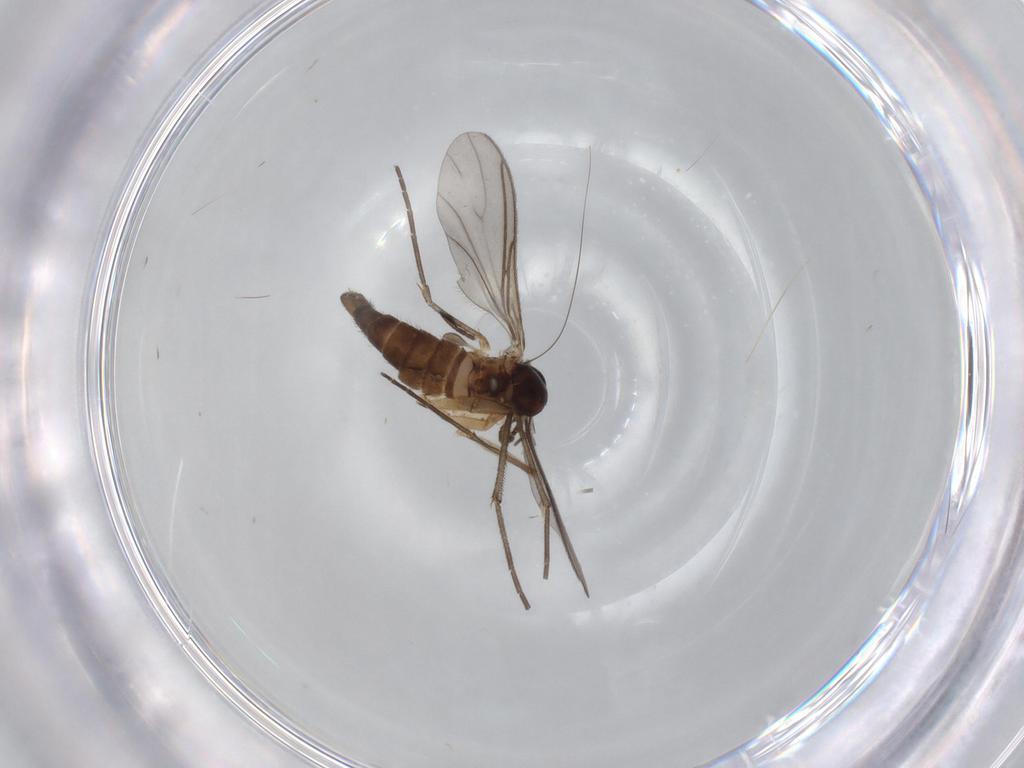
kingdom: Animalia
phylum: Arthropoda
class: Insecta
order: Diptera
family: Sciaridae
